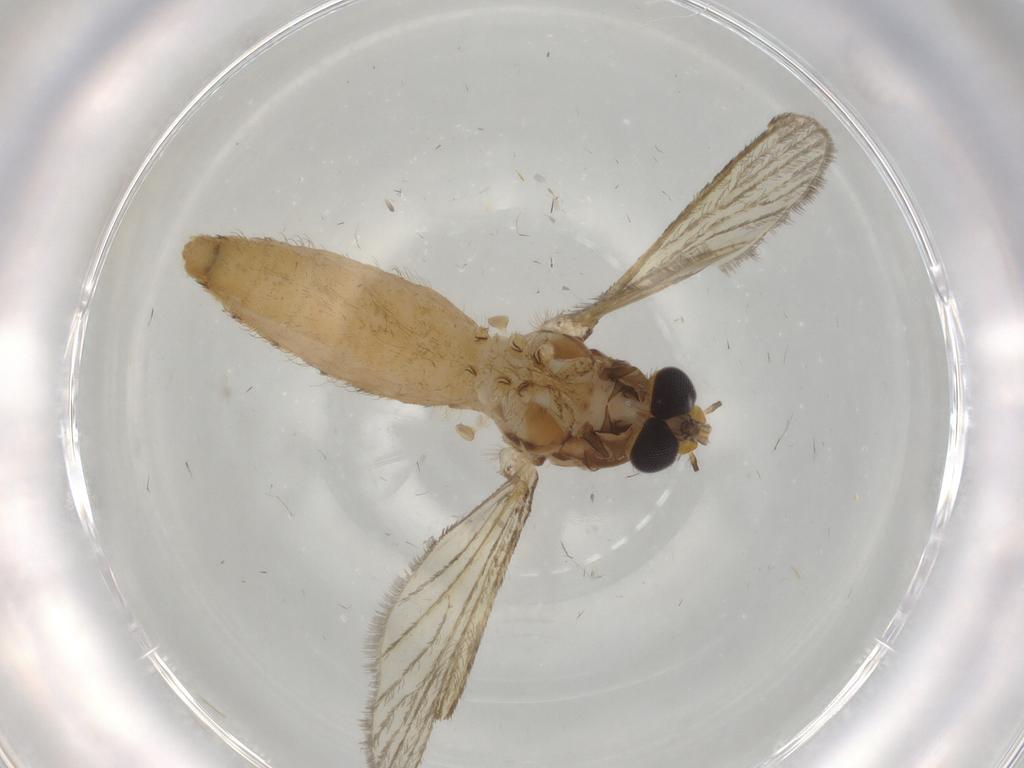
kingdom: Animalia
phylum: Arthropoda
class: Insecta
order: Diptera
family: Culicidae
